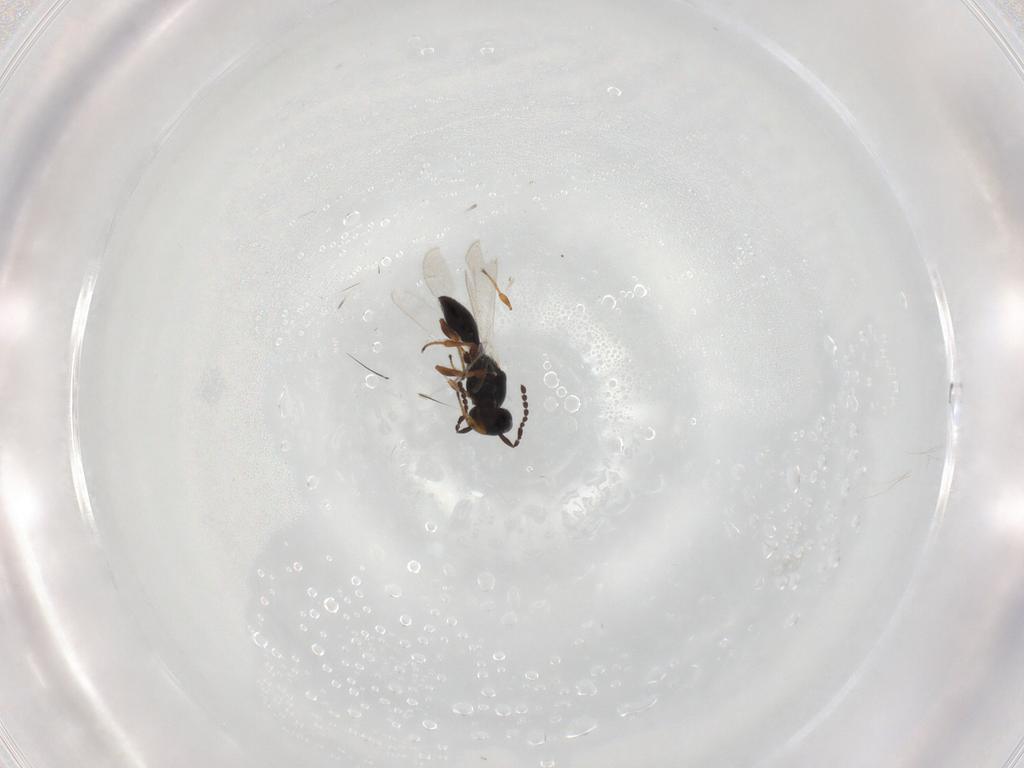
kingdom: Animalia
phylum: Arthropoda
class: Insecta
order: Hymenoptera
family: Platygastridae
